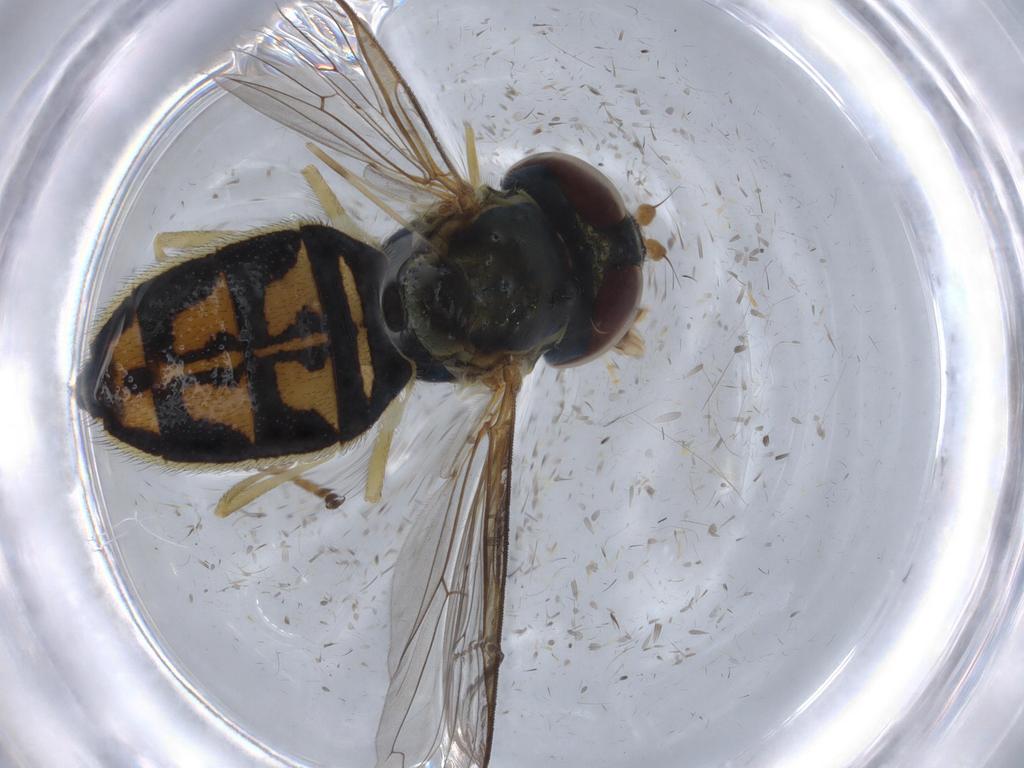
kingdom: Animalia
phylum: Arthropoda
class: Insecta
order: Diptera
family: Syrphidae
